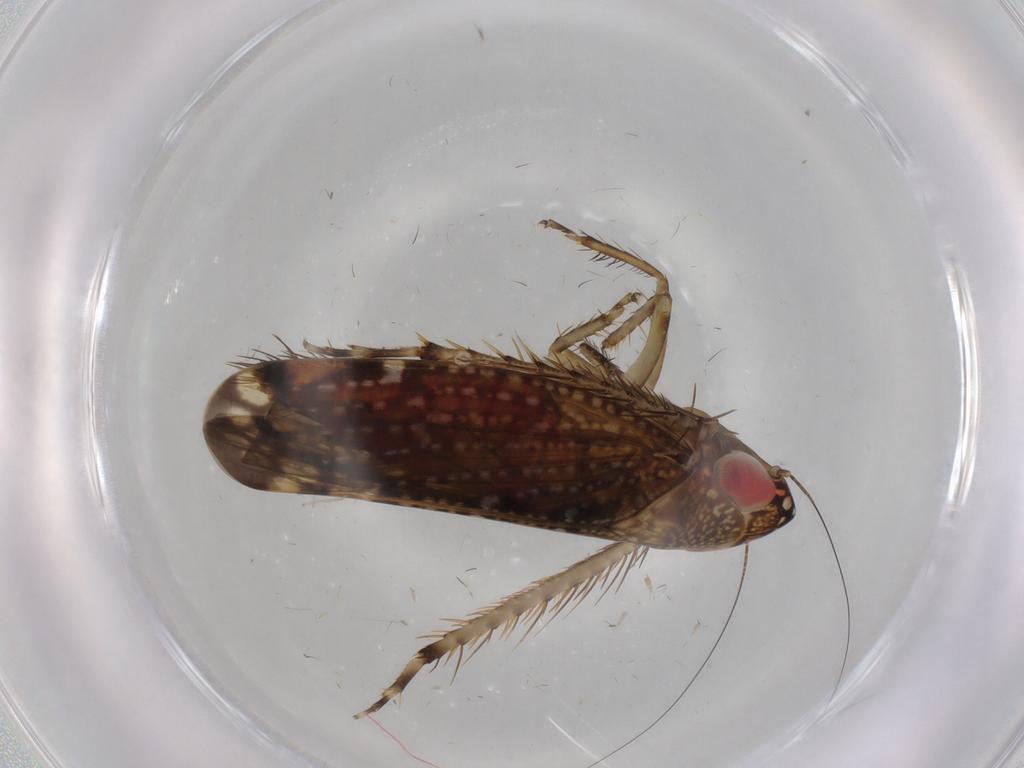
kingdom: Animalia
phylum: Arthropoda
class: Insecta
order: Hemiptera
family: Cicadellidae
